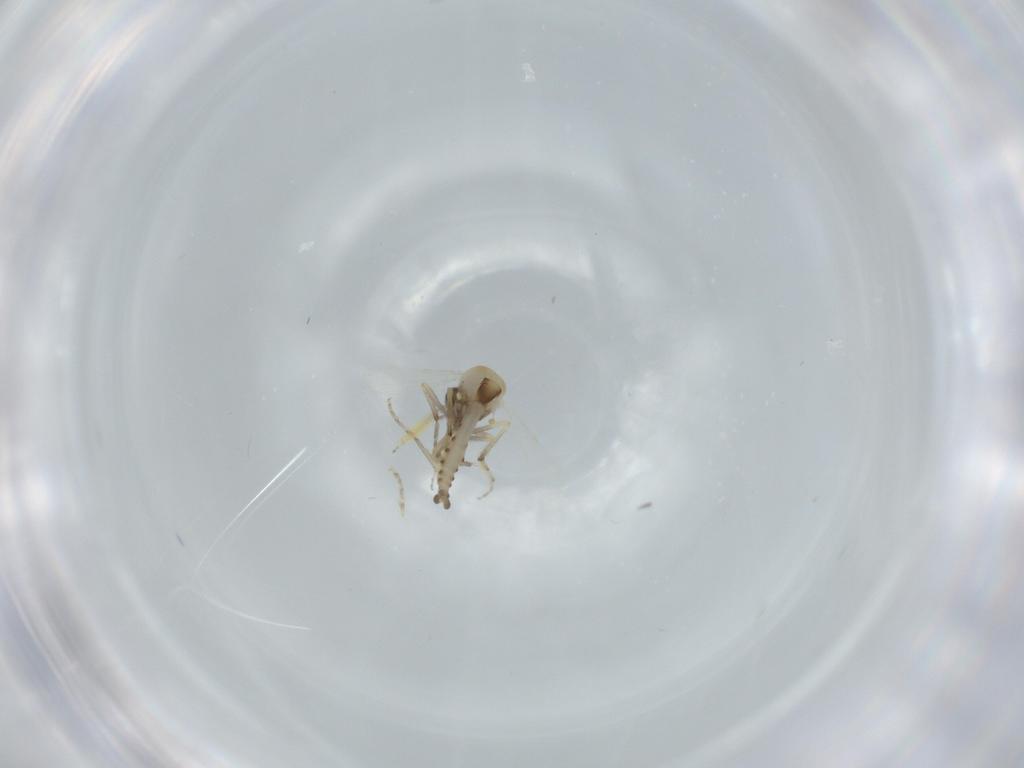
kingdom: Animalia
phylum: Arthropoda
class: Insecta
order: Diptera
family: Ceratopogonidae
